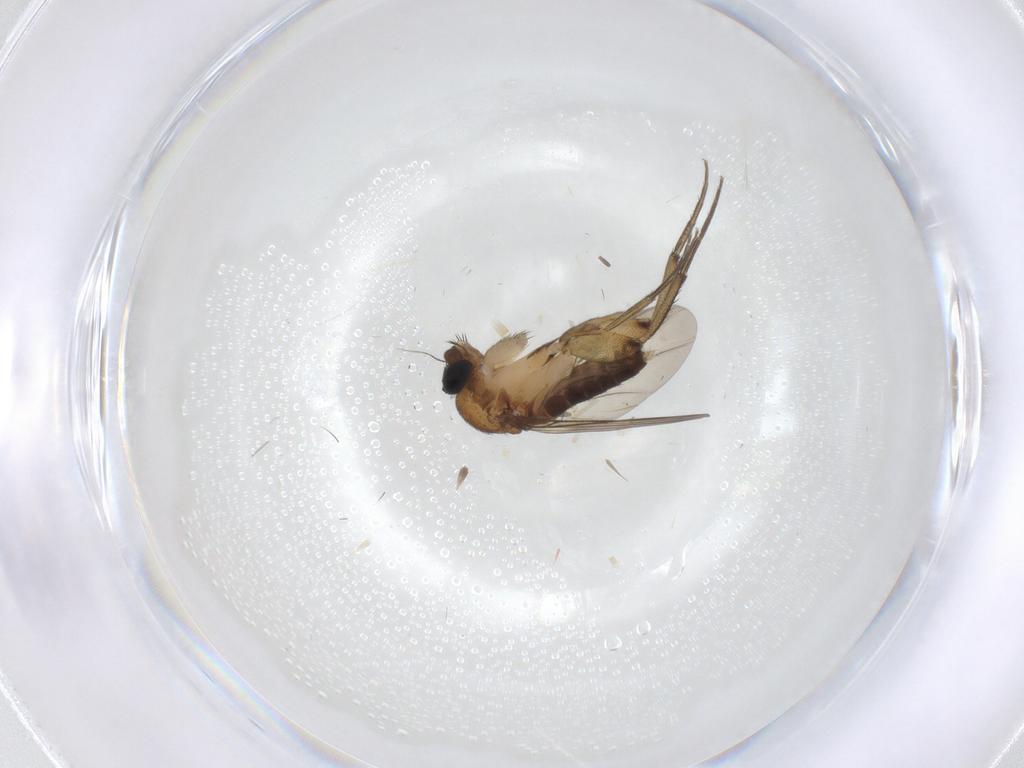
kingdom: Animalia
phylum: Arthropoda
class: Insecta
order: Diptera
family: Phoridae
